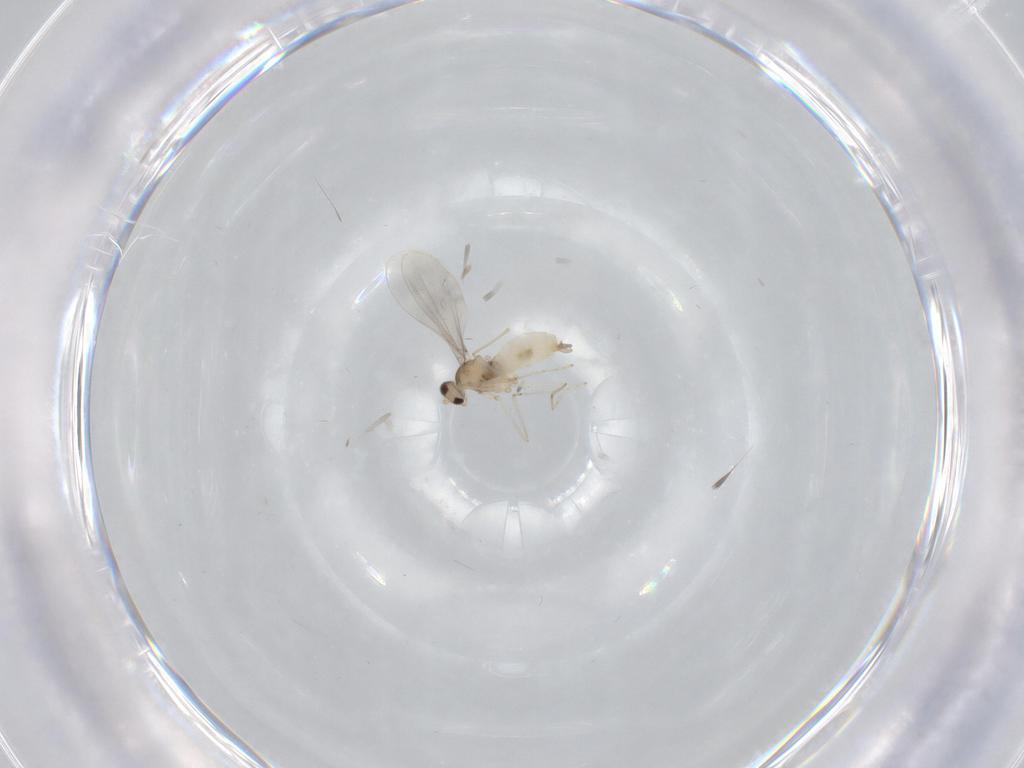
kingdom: Animalia
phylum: Arthropoda
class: Insecta
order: Diptera
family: Cecidomyiidae
